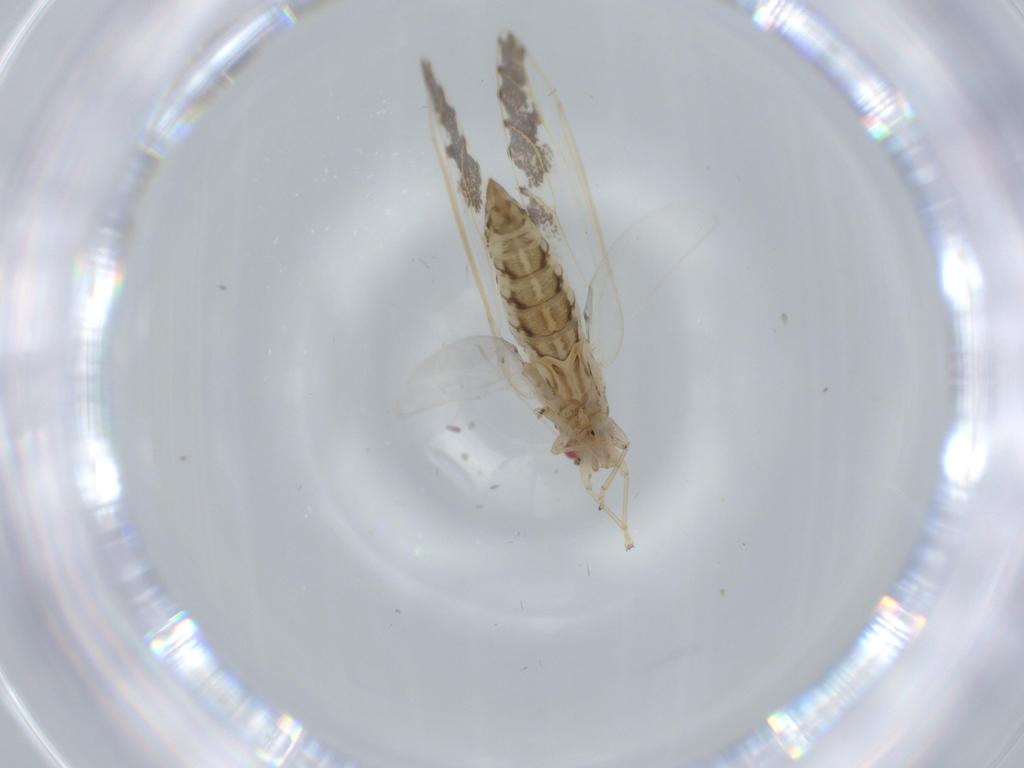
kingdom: Animalia
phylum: Arthropoda
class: Insecta
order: Hemiptera
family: Triozidae
